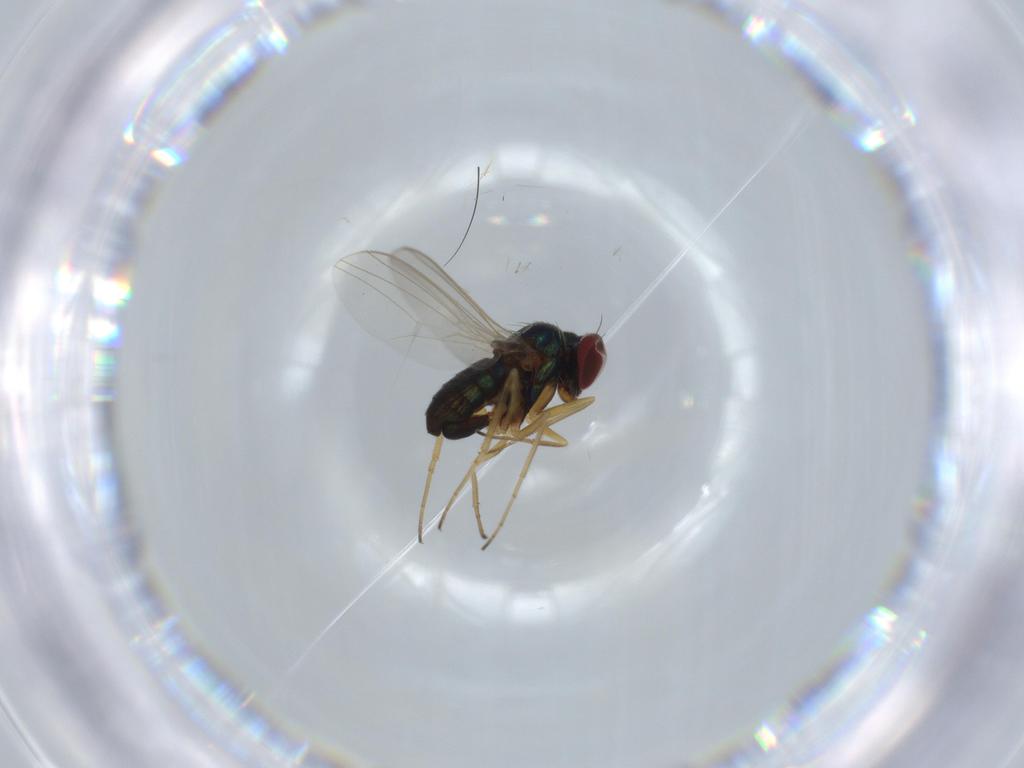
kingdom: Animalia
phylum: Arthropoda
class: Insecta
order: Diptera
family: Dolichopodidae
